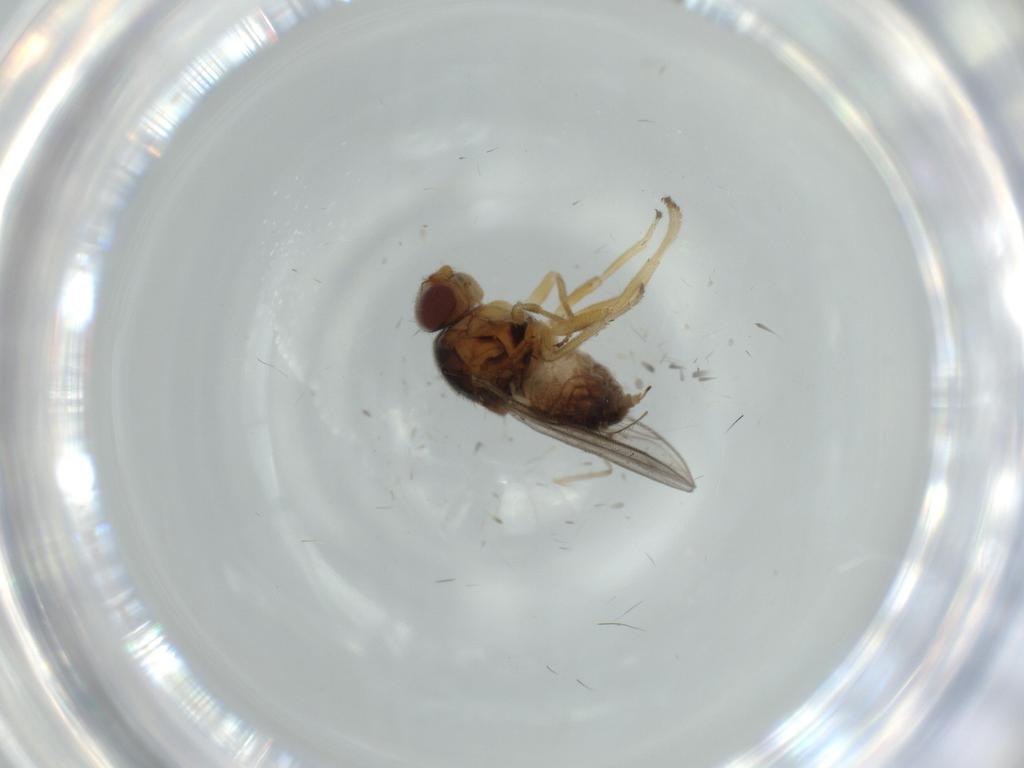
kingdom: Animalia
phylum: Arthropoda
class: Insecta
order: Diptera
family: Chloropidae
